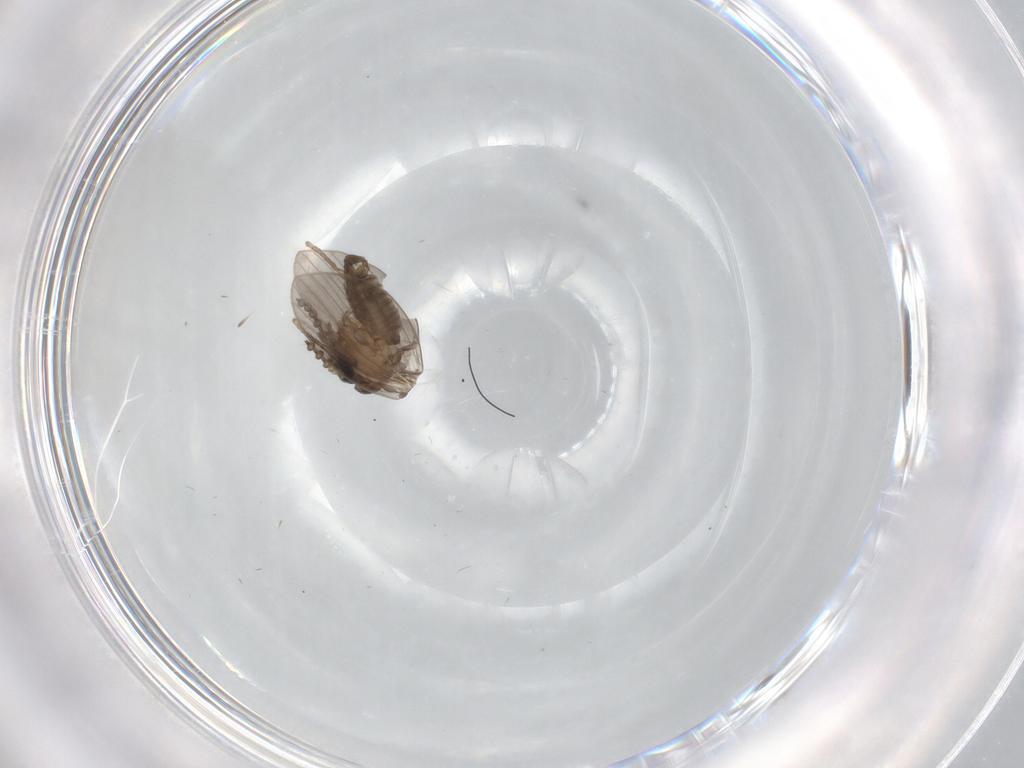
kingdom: Animalia
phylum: Arthropoda
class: Insecta
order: Diptera
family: Psychodidae
